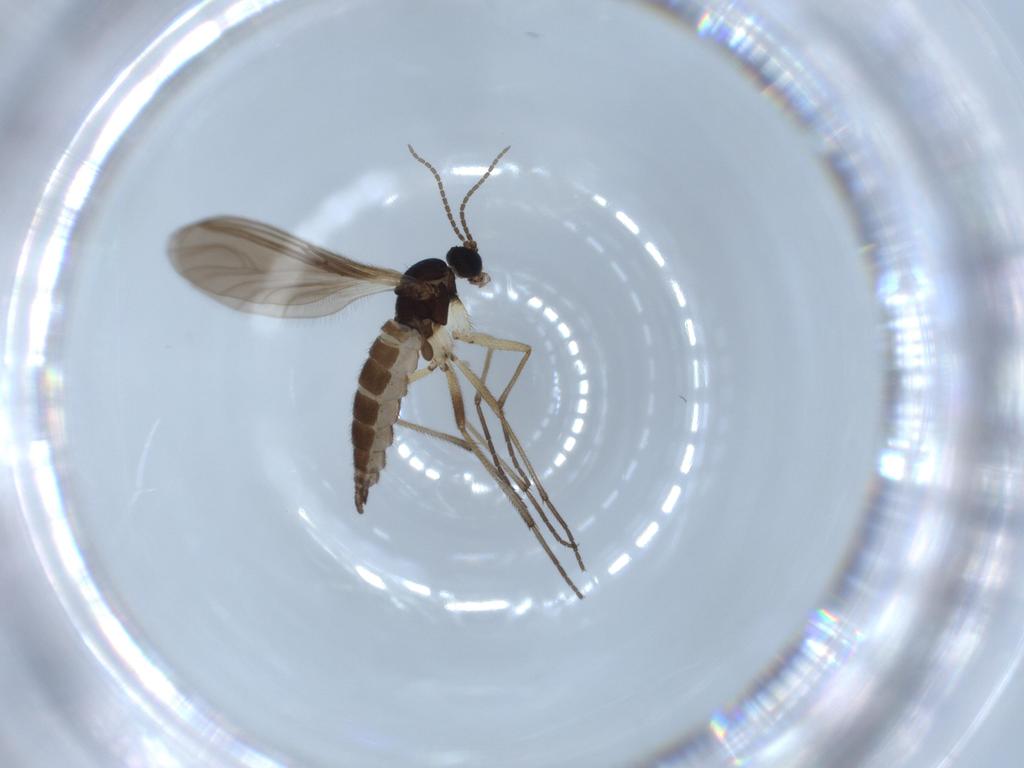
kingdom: Animalia
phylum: Arthropoda
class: Insecta
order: Diptera
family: Sciaridae
